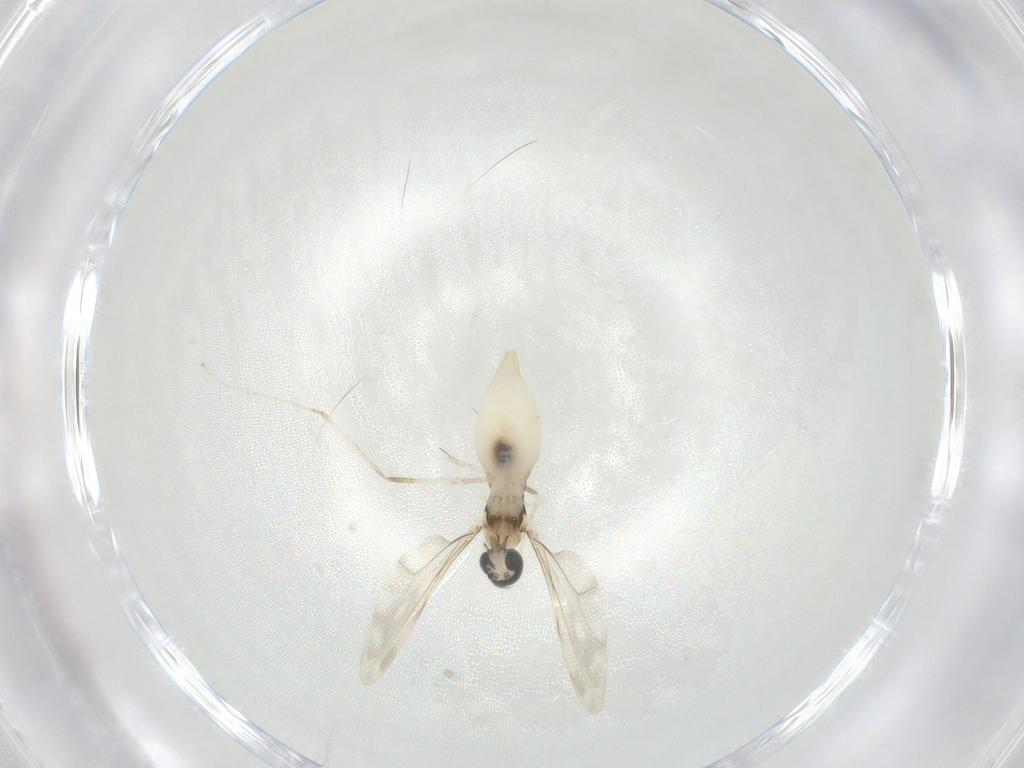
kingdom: Animalia
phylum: Arthropoda
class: Insecta
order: Diptera
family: Cecidomyiidae
